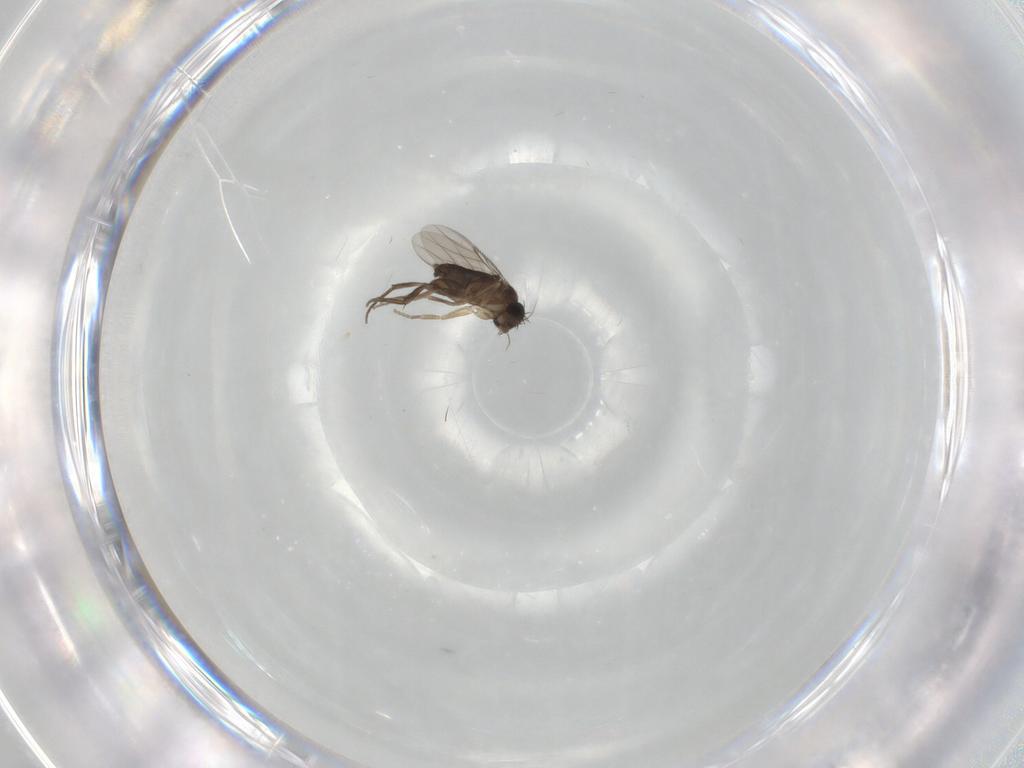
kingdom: Animalia
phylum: Arthropoda
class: Insecta
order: Diptera
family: Phoridae
